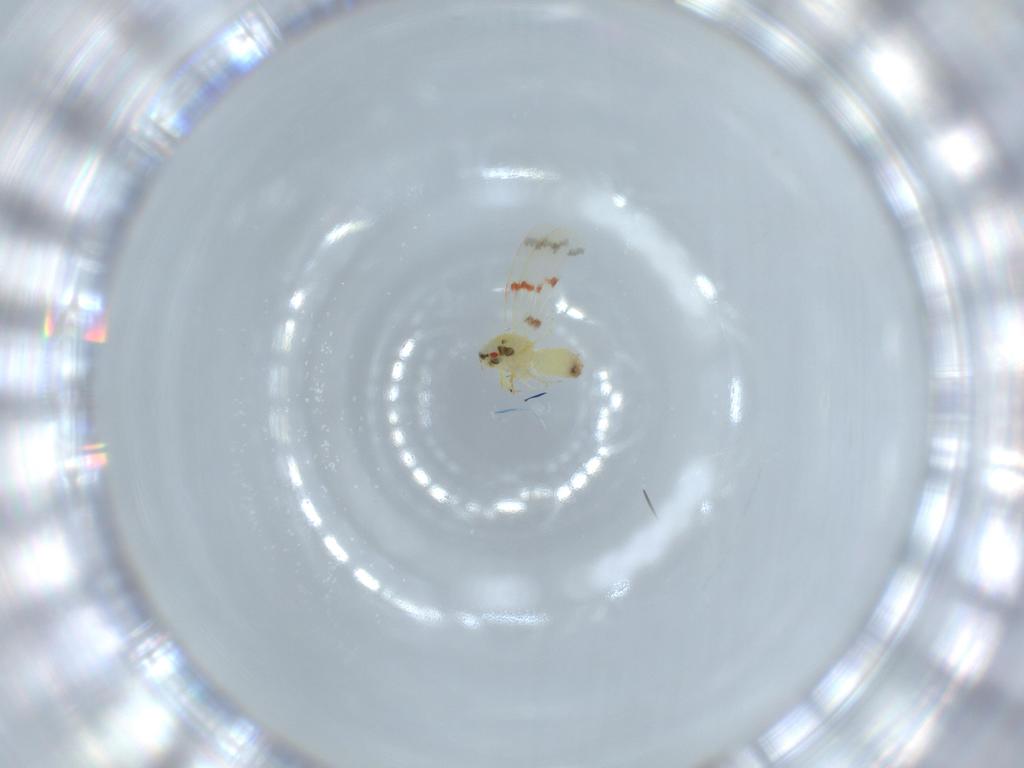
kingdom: Animalia
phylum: Arthropoda
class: Insecta
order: Hemiptera
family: Aleyrodidae
